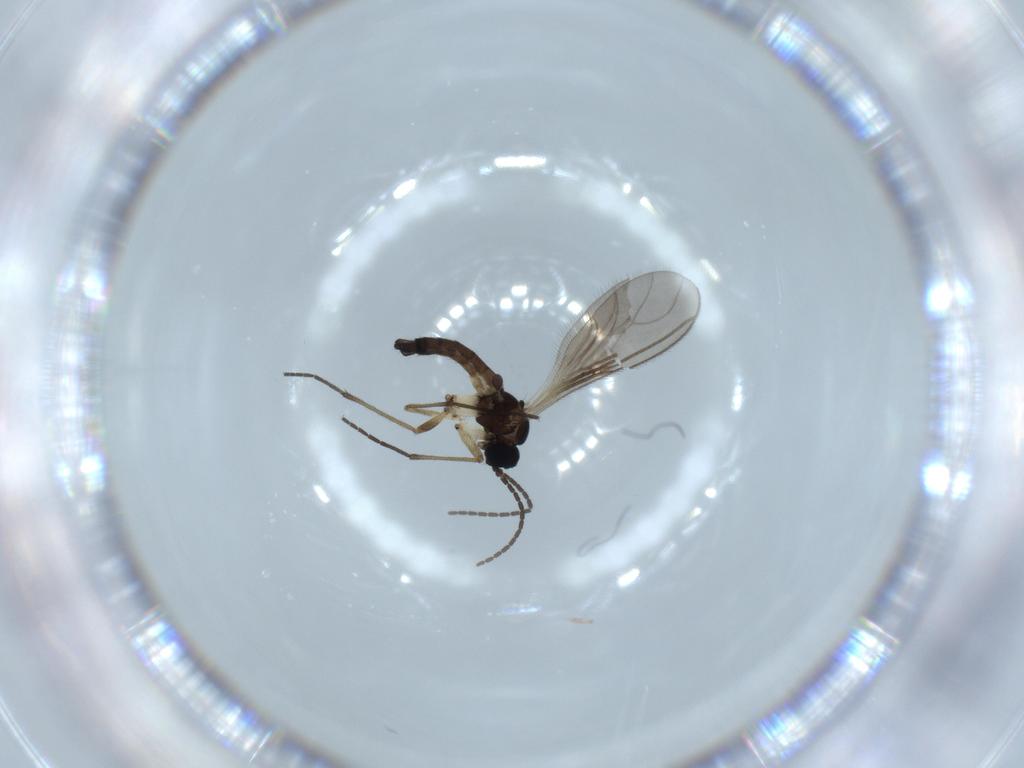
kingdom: Animalia
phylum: Arthropoda
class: Insecta
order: Diptera
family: Sciaridae
